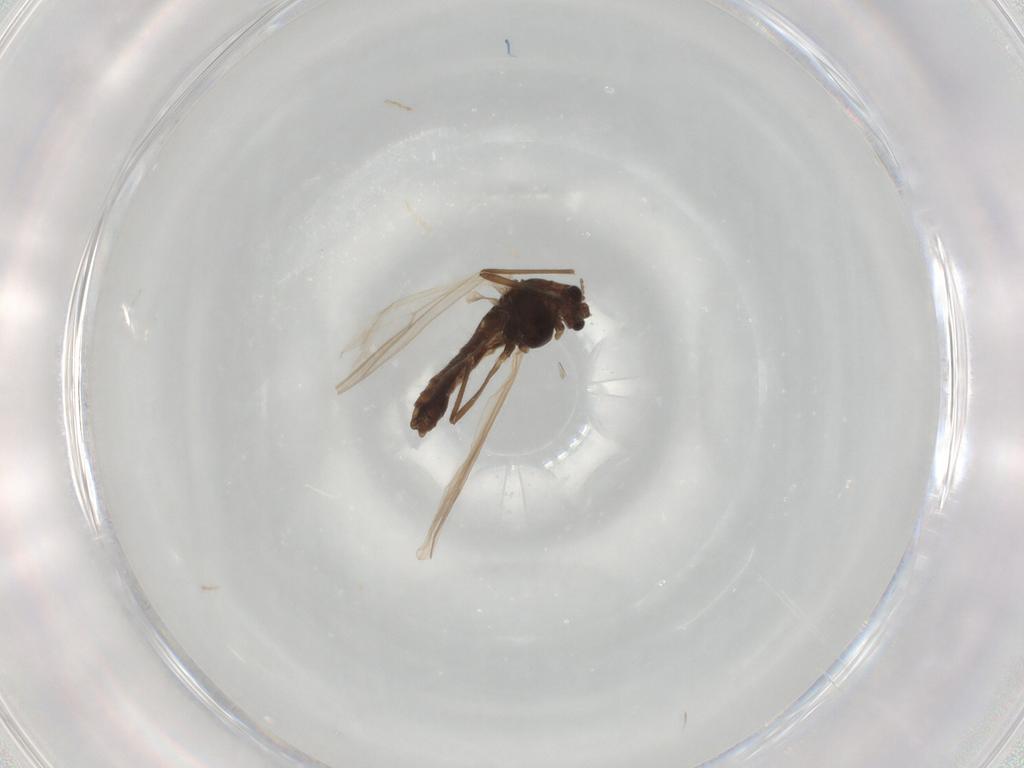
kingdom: Animalia
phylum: Arthropoda
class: Insecta
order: Diptera
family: Chironomidae
